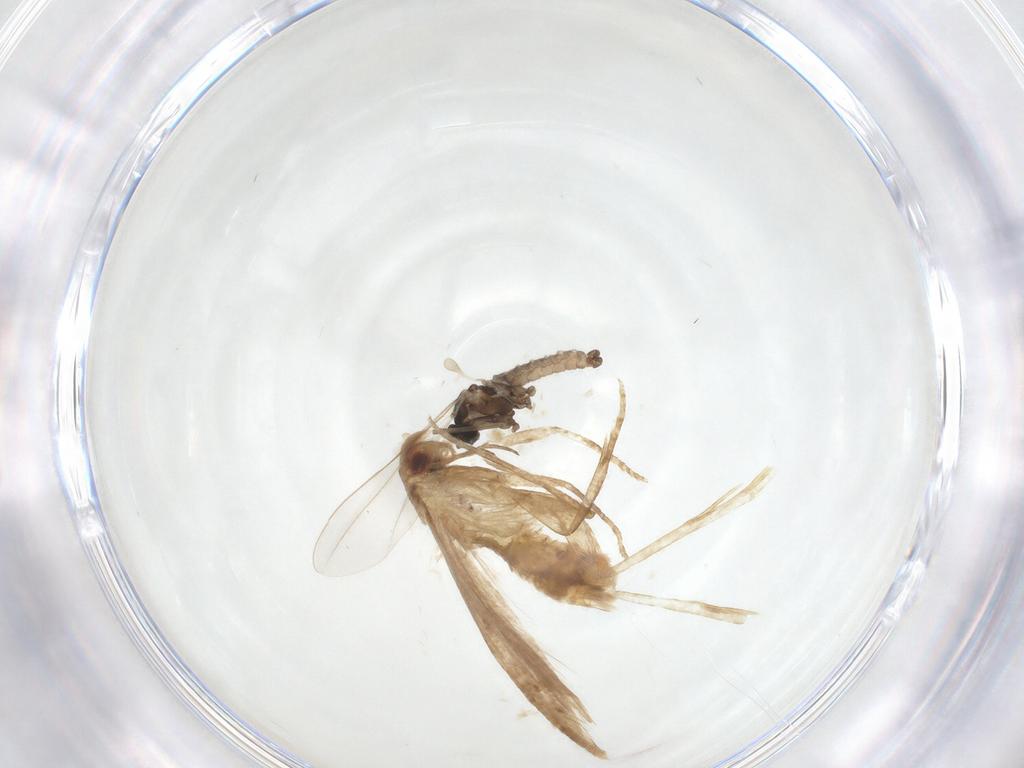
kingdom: Animalia
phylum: Arthropoda
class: Insecta
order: Lepidoptera
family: Gelechiidae
